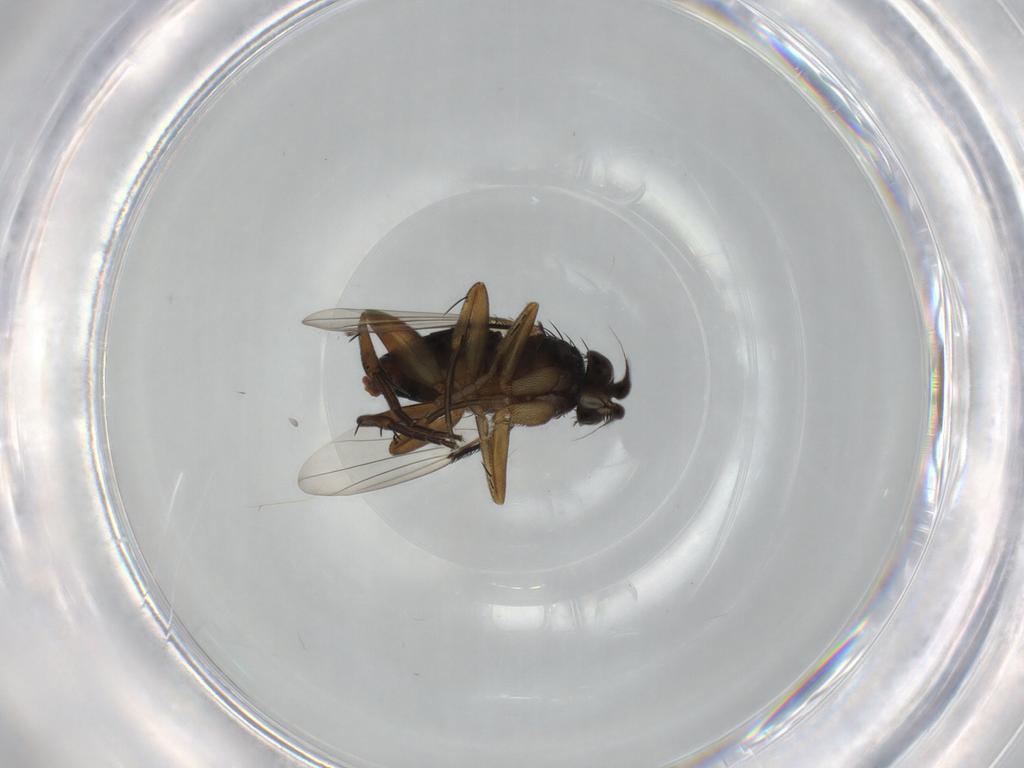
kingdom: Animalia
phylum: Arthropoda
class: Insecta
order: Diptera
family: Phoridae
